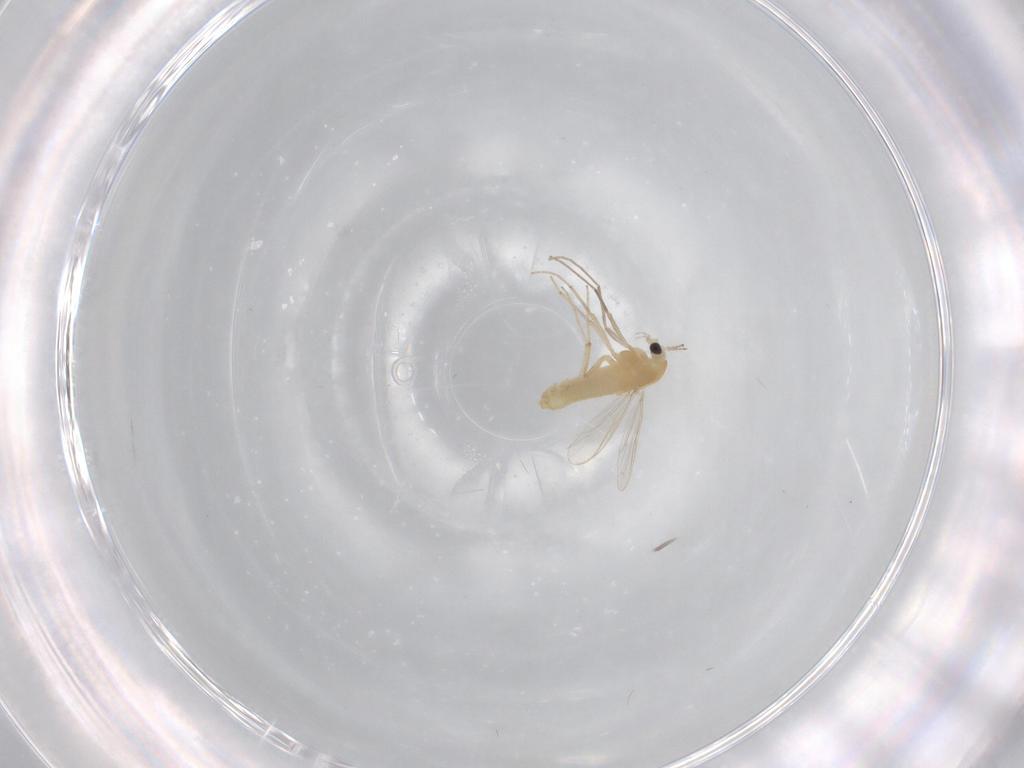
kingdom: Animalia
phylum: Arthropoda
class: Insecta
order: Diptera
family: Chironomidae
